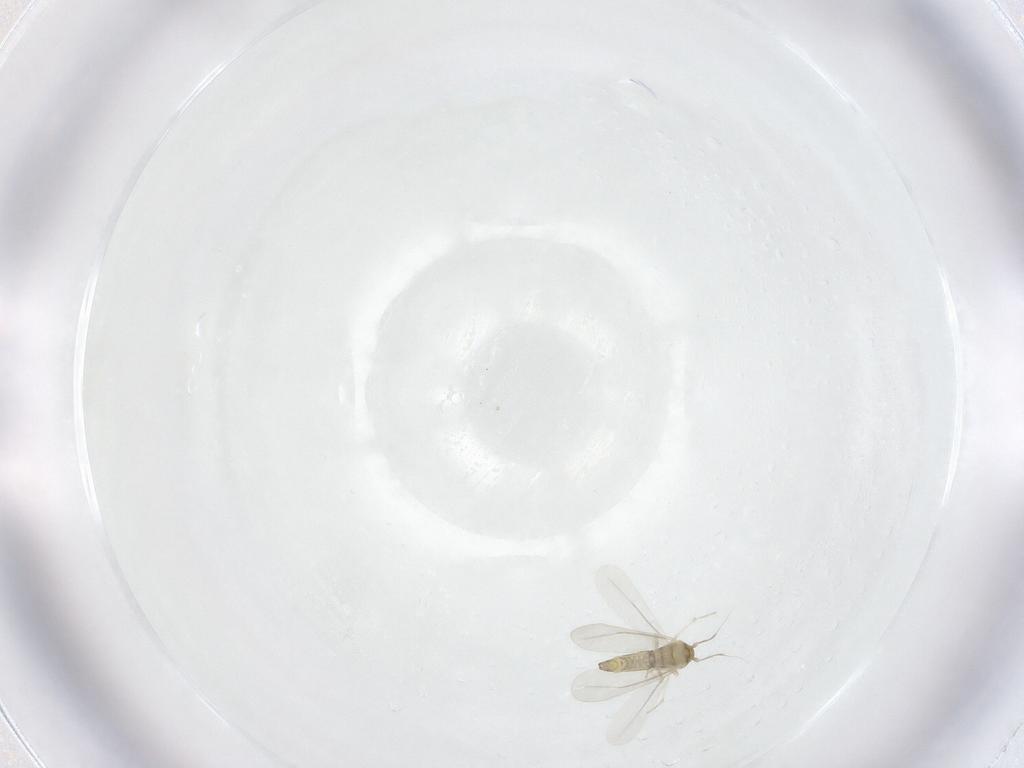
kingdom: Animalia
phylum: Arthropoda
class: Insecta
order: Hemiptera
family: Aleyrodidae
